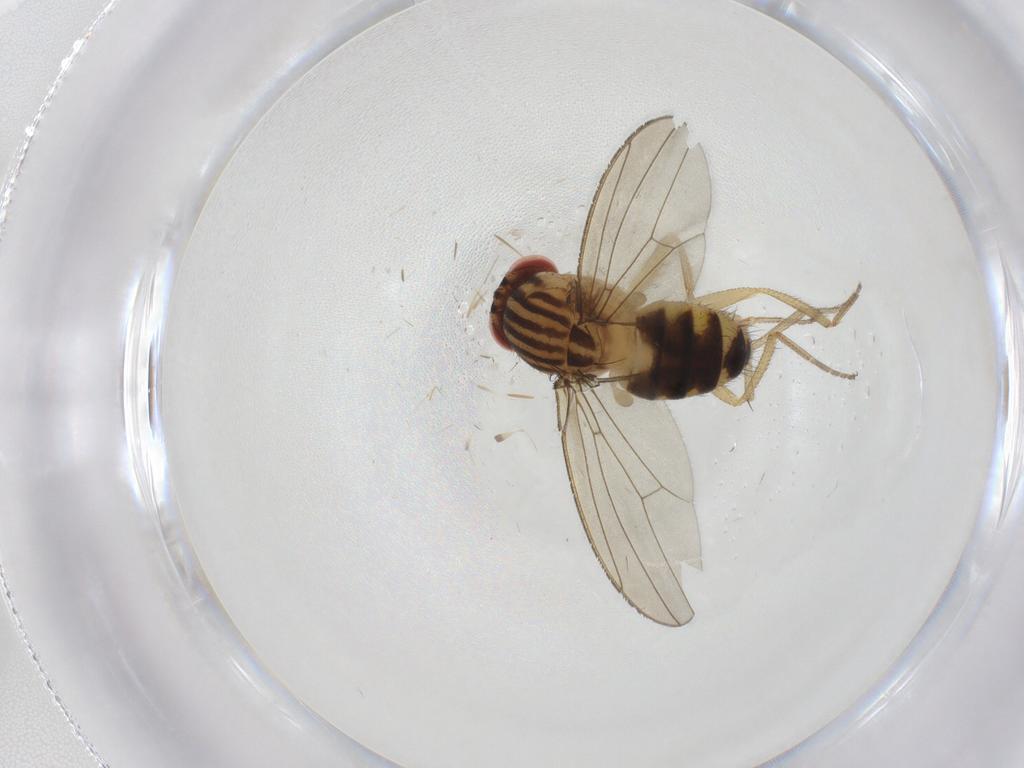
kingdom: Animalia
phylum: Arthropoda
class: Insecta
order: Diptera
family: Drosophilidae
